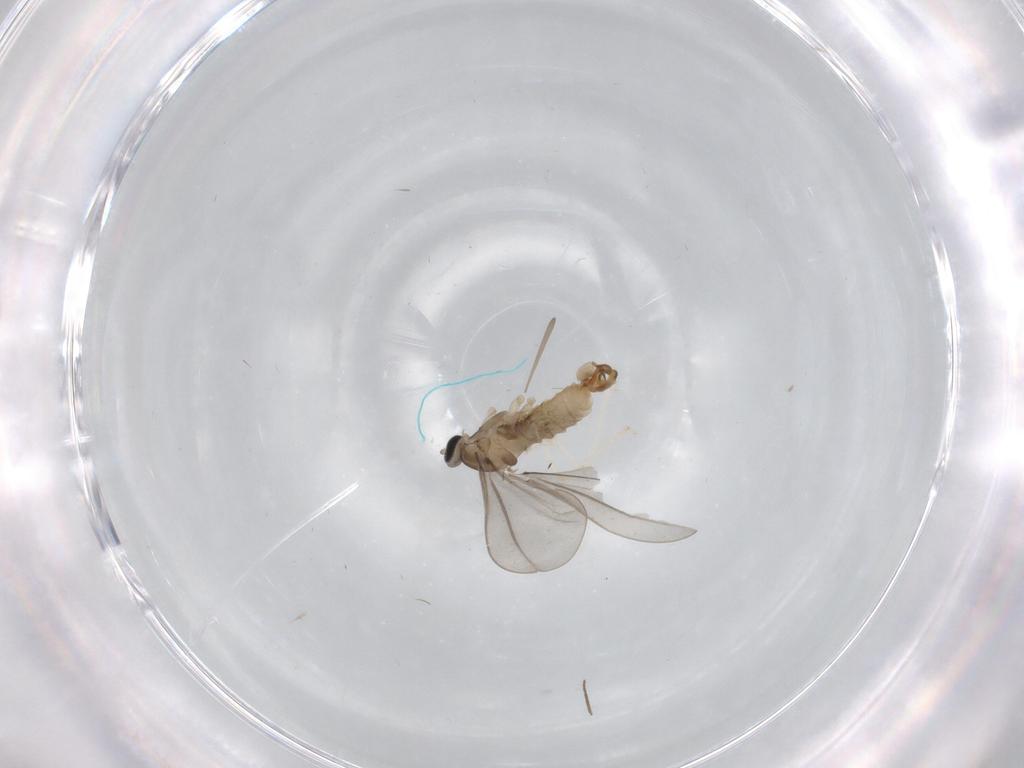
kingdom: Animalia
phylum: Arthropoda
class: Insecta
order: Diptera
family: Cecidomyiidae
